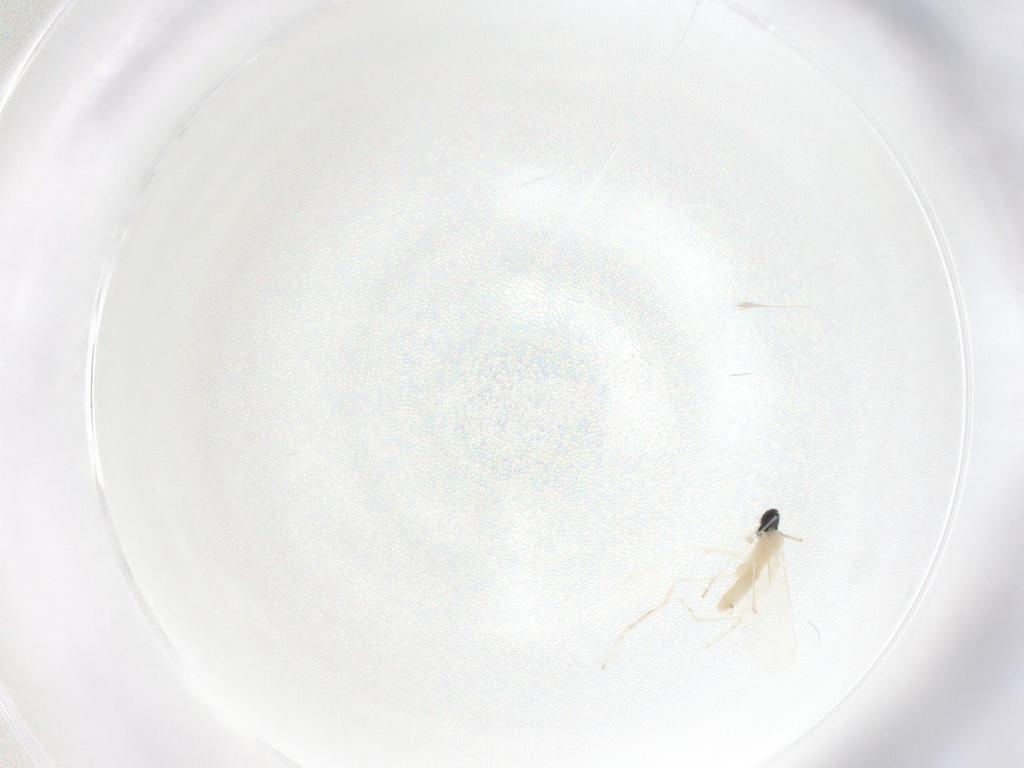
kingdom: Animalia
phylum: Arthropoda
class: Insecta
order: Diptera
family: Cecidomyiidae
